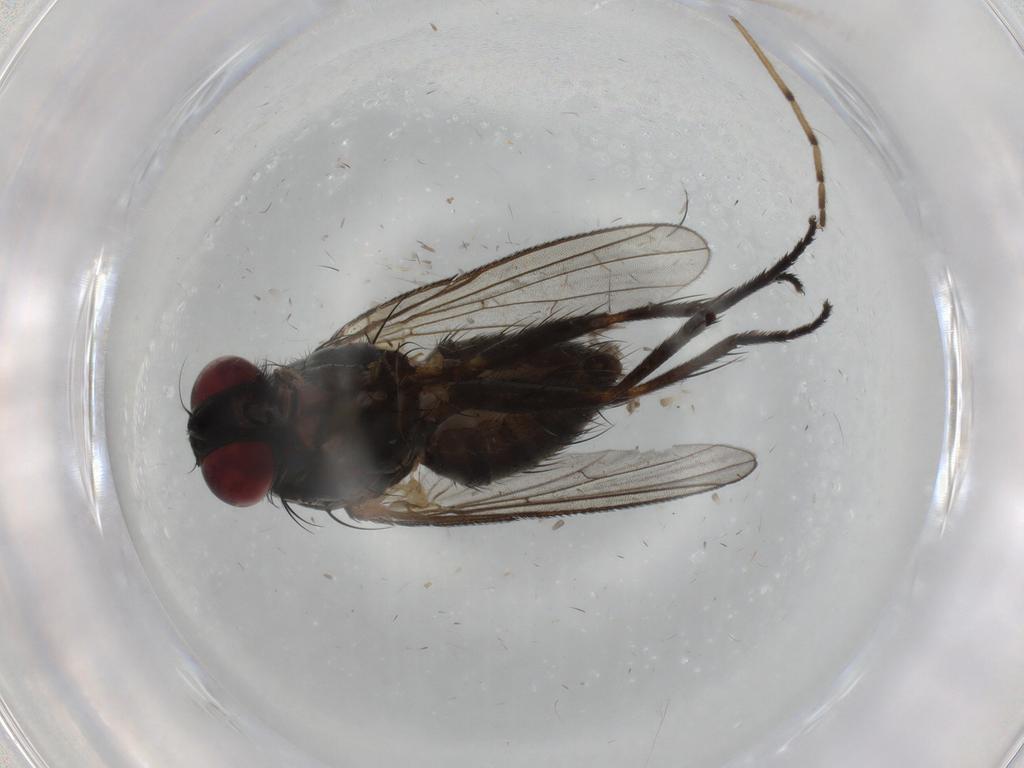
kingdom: Animalia
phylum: Arthropoda
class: Insecta
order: Diptera
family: Muscidae
